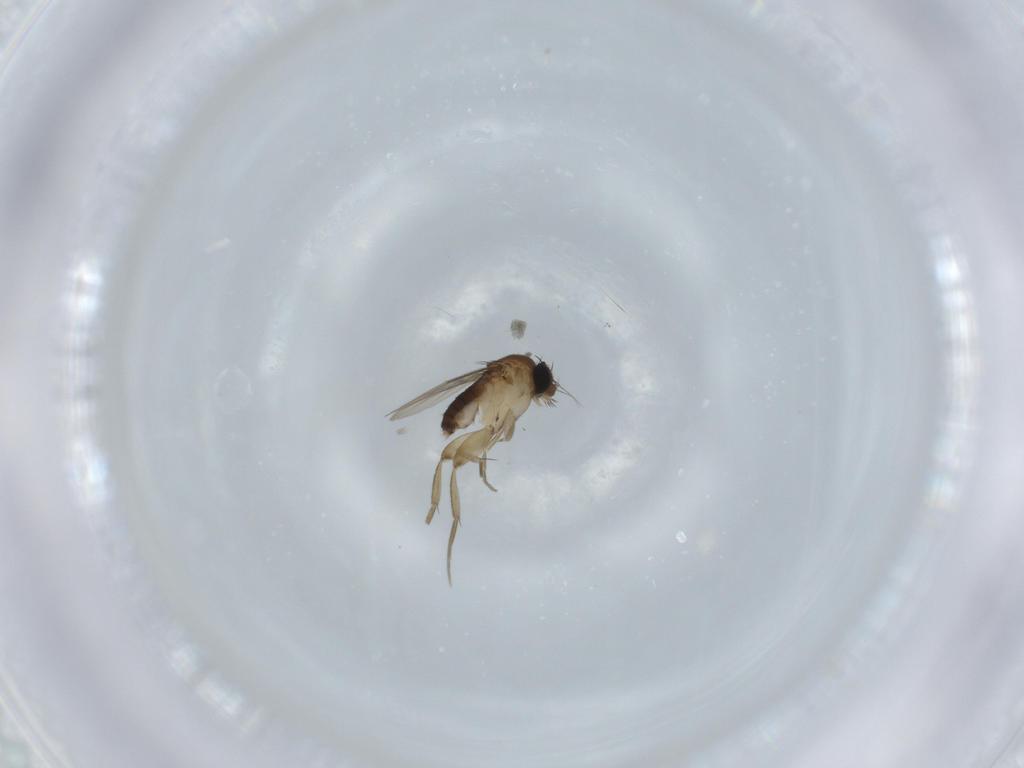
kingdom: Animalia
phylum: Arthropoda
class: Insecta
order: Diptera
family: Phoridae
